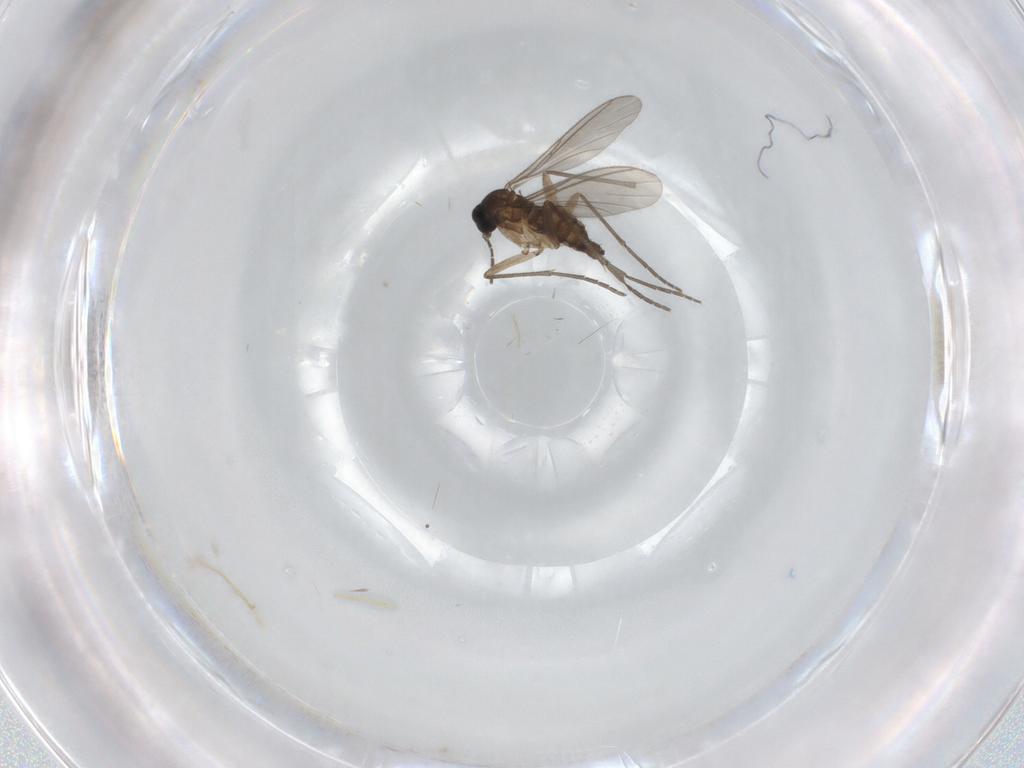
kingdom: Animalia
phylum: Arthropoda
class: Insecta
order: Diptera
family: Sciaridae
